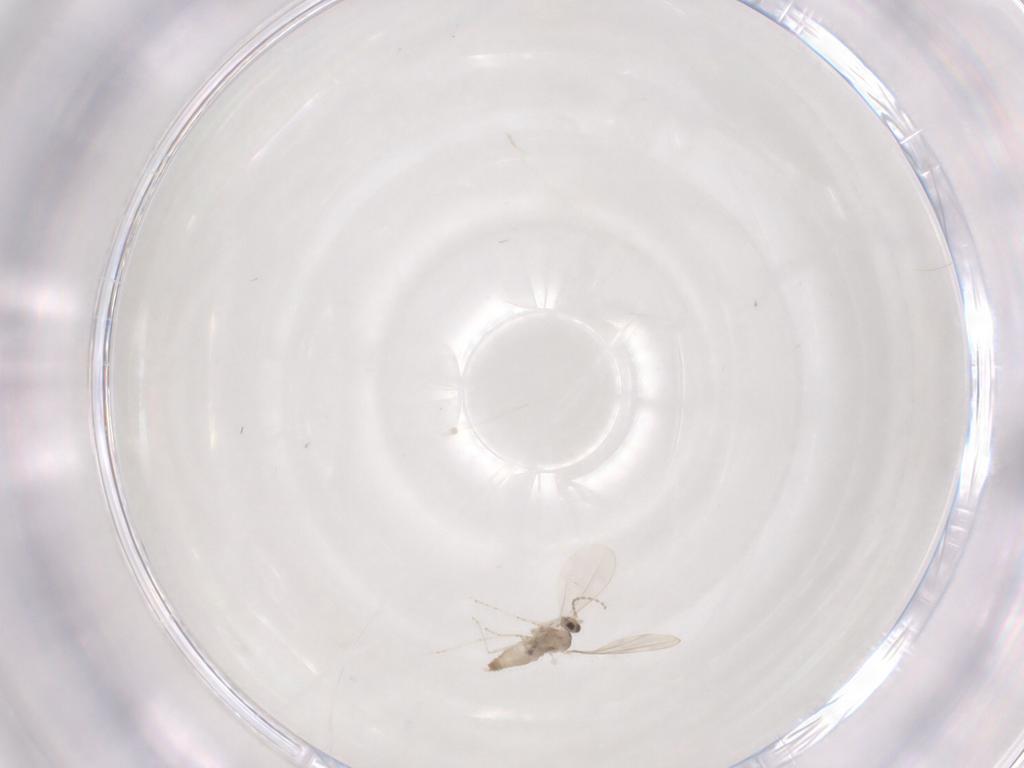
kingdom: Animalia
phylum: Arthropoda
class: Insecta
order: Diptera
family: Cecidomyiidae
